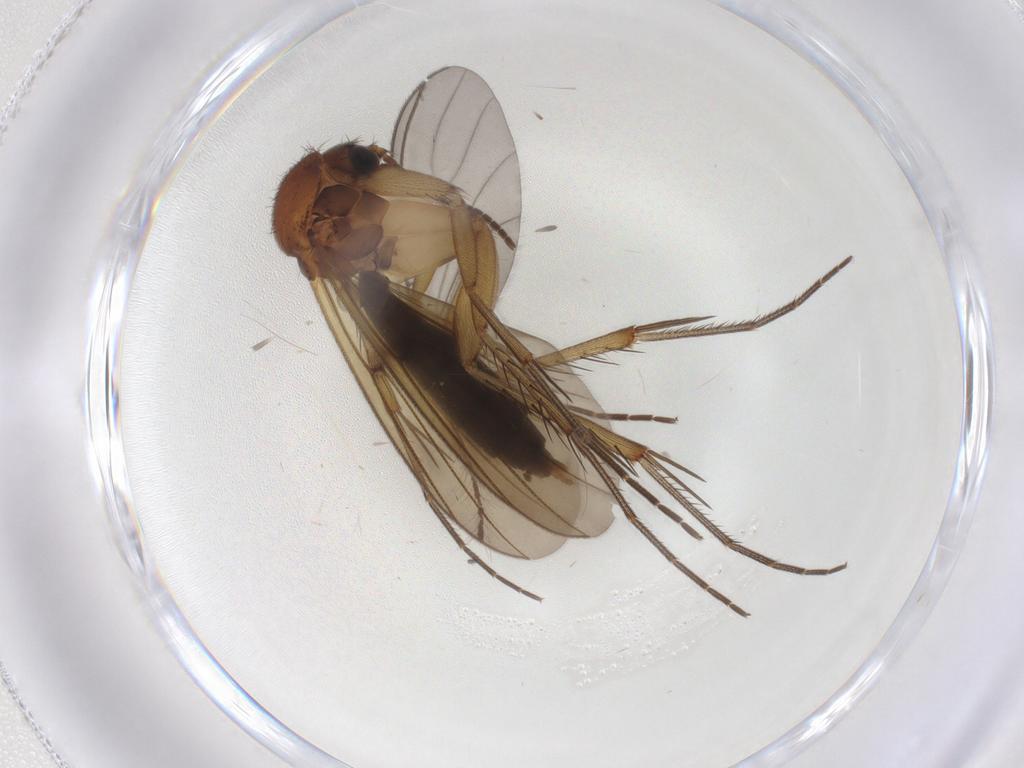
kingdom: Animalia
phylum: Arthropoda
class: Insecta
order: Diptera
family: Mycetophilidae
